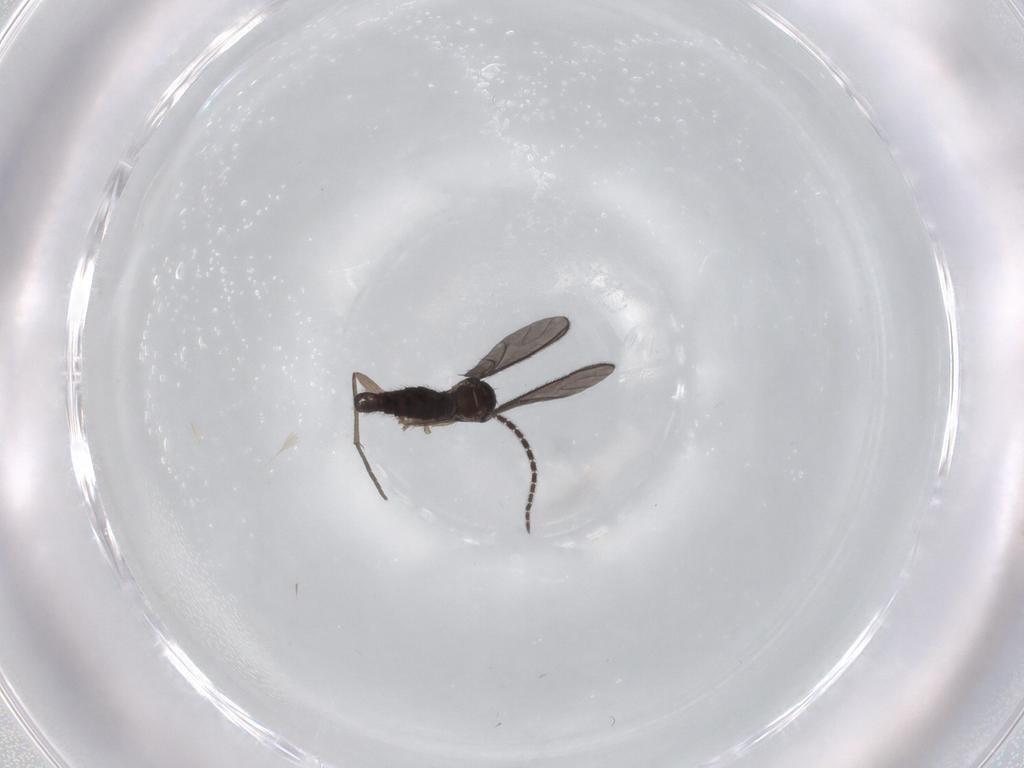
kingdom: Animalia
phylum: Arthropoda
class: Insecta
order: Diptera
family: Sciaridae
